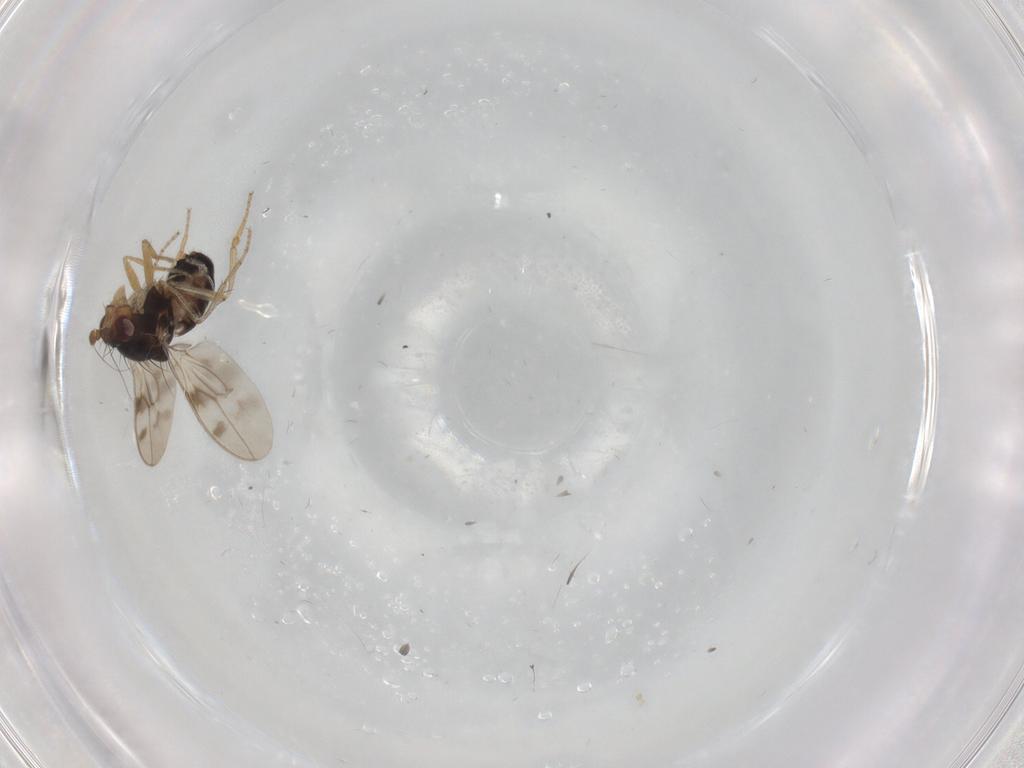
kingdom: Animalia
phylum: Arthropoda
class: Insecta
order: Diptera
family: Sphaeroceridae
